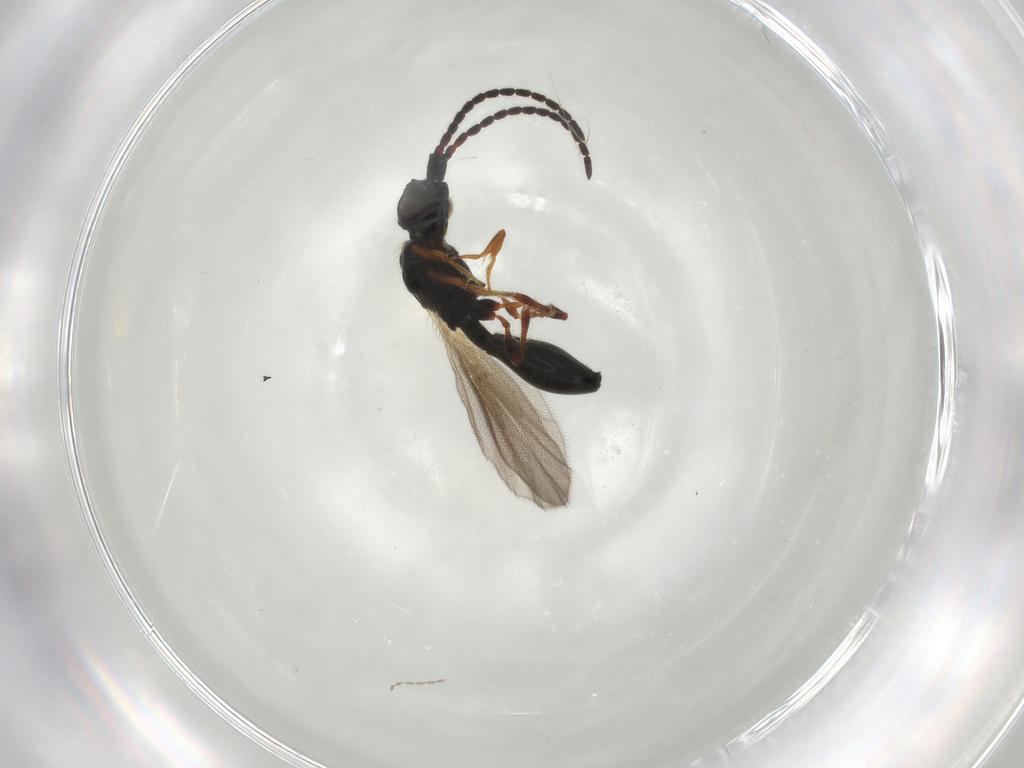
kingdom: Animalia
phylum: Arthropoda
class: Insecta
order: Hymenoptera
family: Diapriidae
